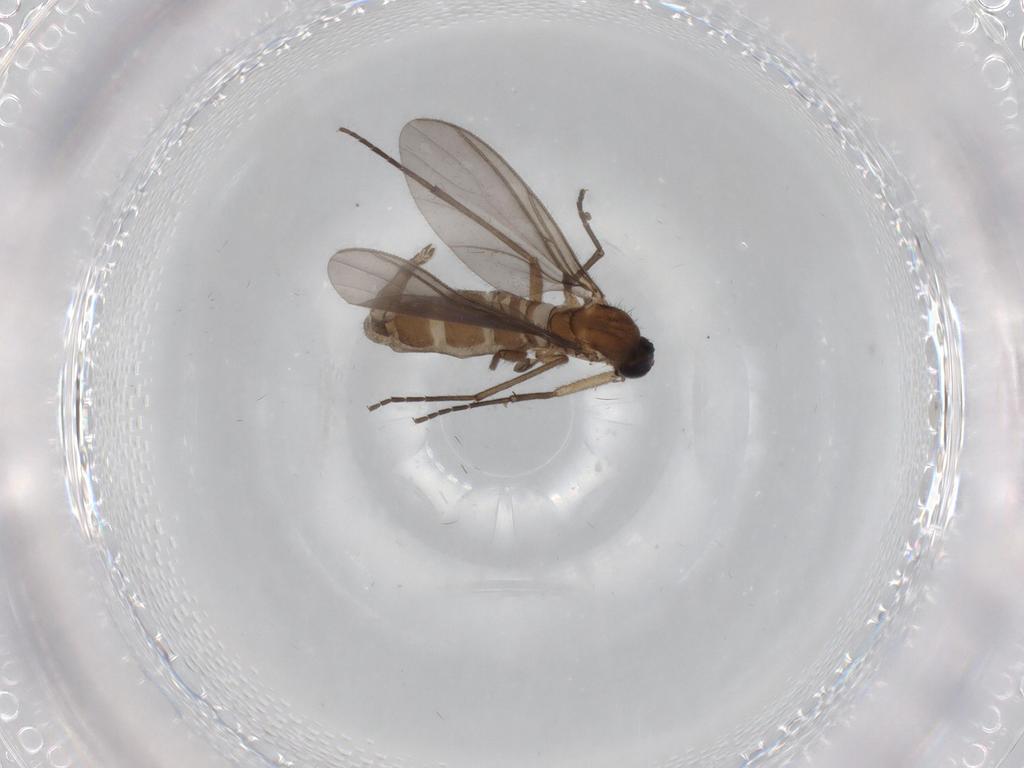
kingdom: Animalia
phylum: Arthropoda
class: Insecta
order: Diptera
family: Sciaridae
